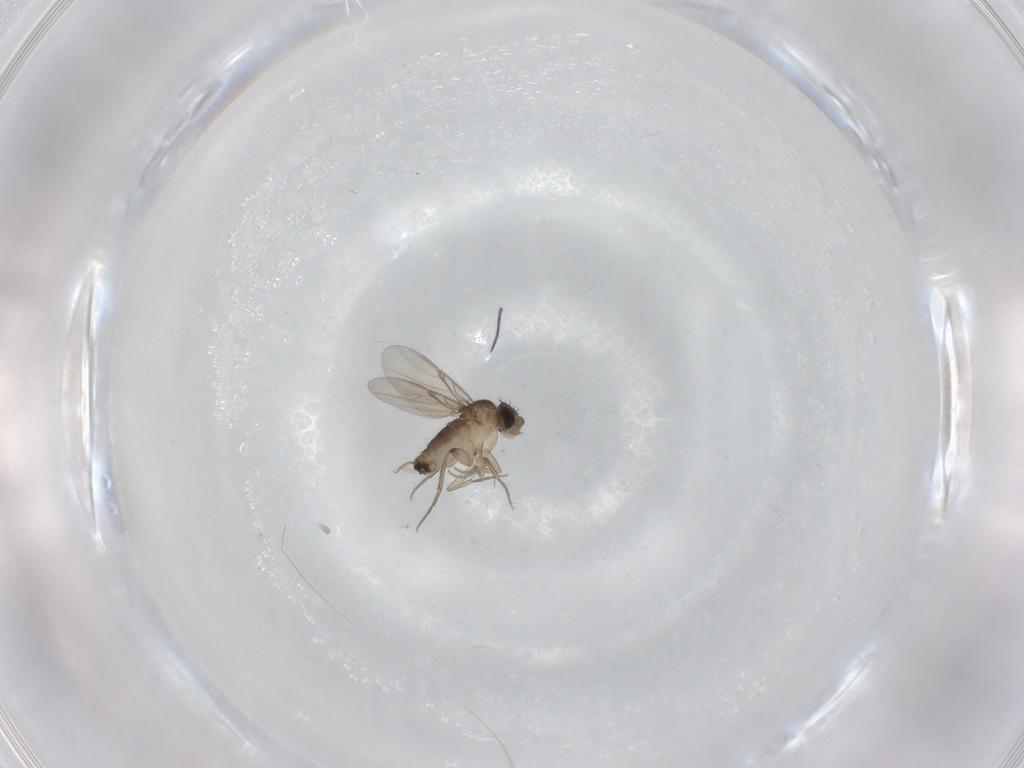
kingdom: Animalia
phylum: Arthropoda
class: Insecta
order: Diptera
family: Phoridae
